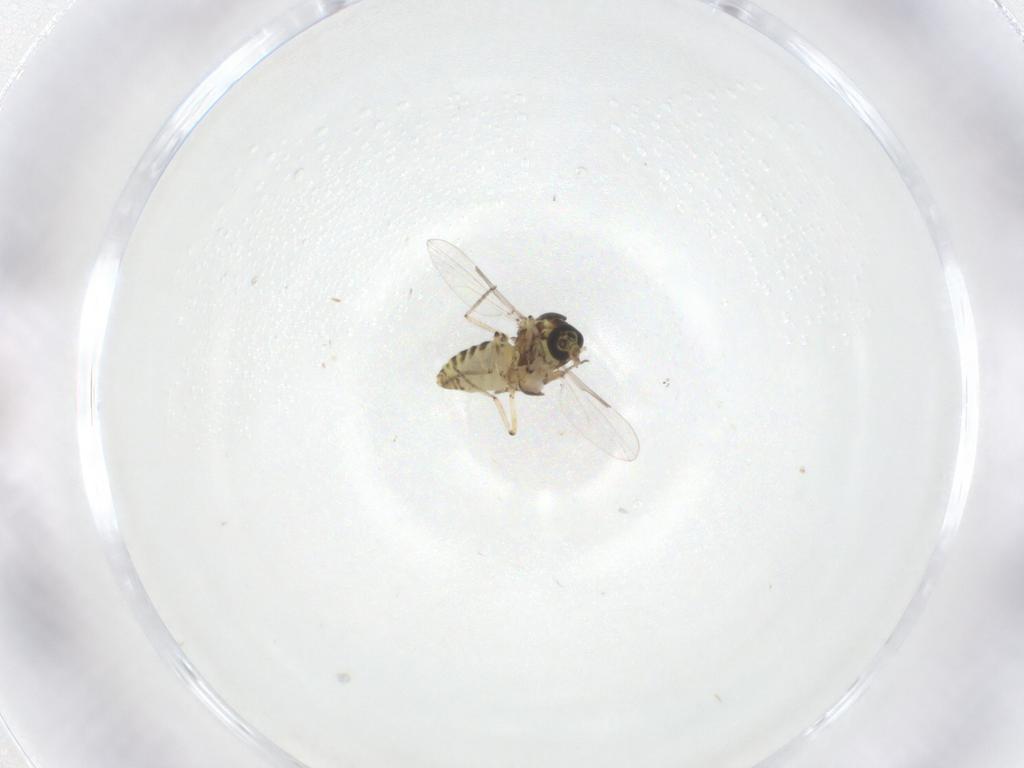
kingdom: Animalia
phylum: Arthropoda
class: Insecta
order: Diptera
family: Ceratopogonidae
